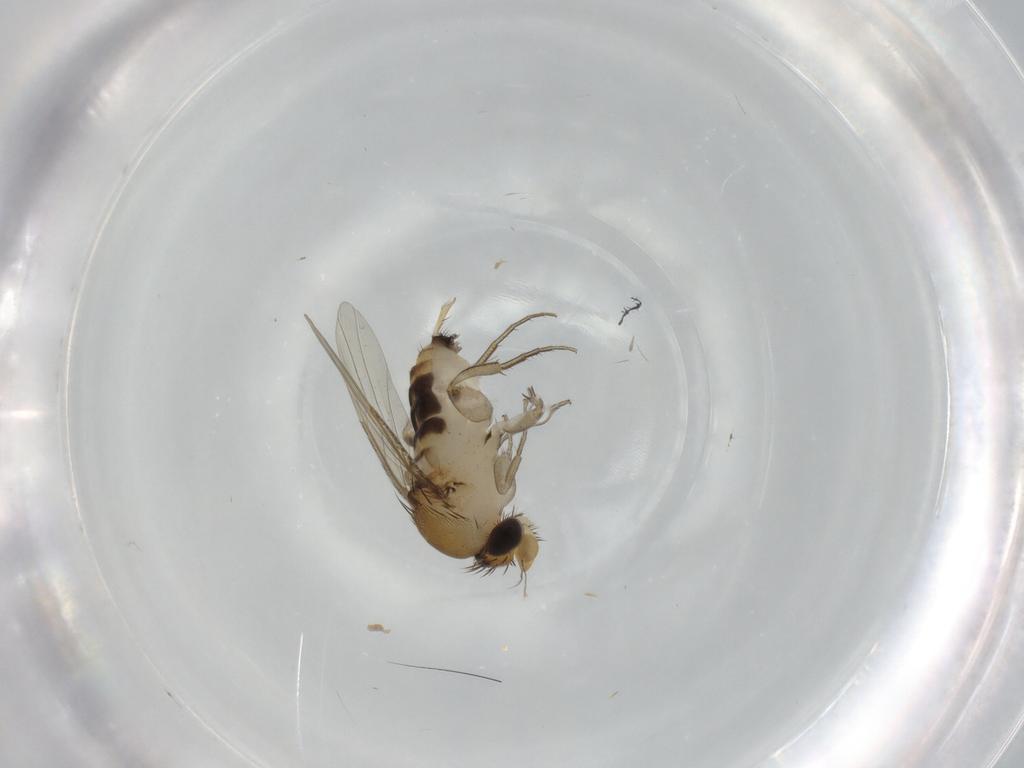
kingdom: Animalia
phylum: Arthropoda
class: Insecta
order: Diptera
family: Phoridae
